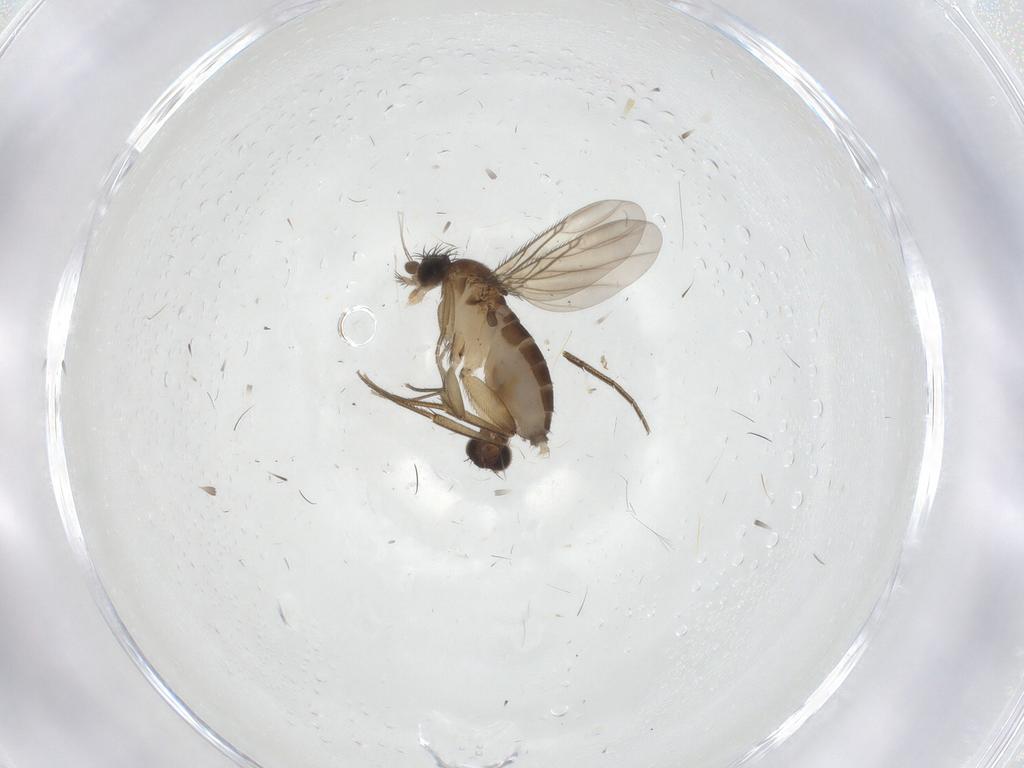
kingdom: Animalia
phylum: Arthropoda
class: Insecta
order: Diptera
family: Phoridae
